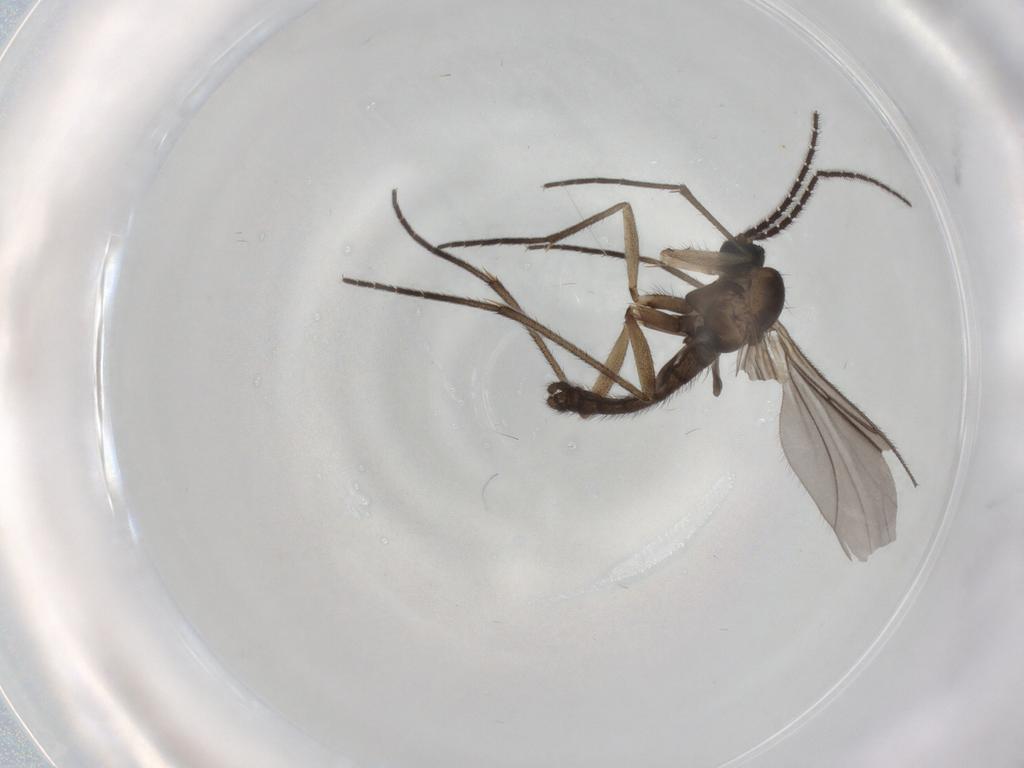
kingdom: Animalia
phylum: Arthropoda
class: Insecta
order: Diptera
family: Sciaridae
